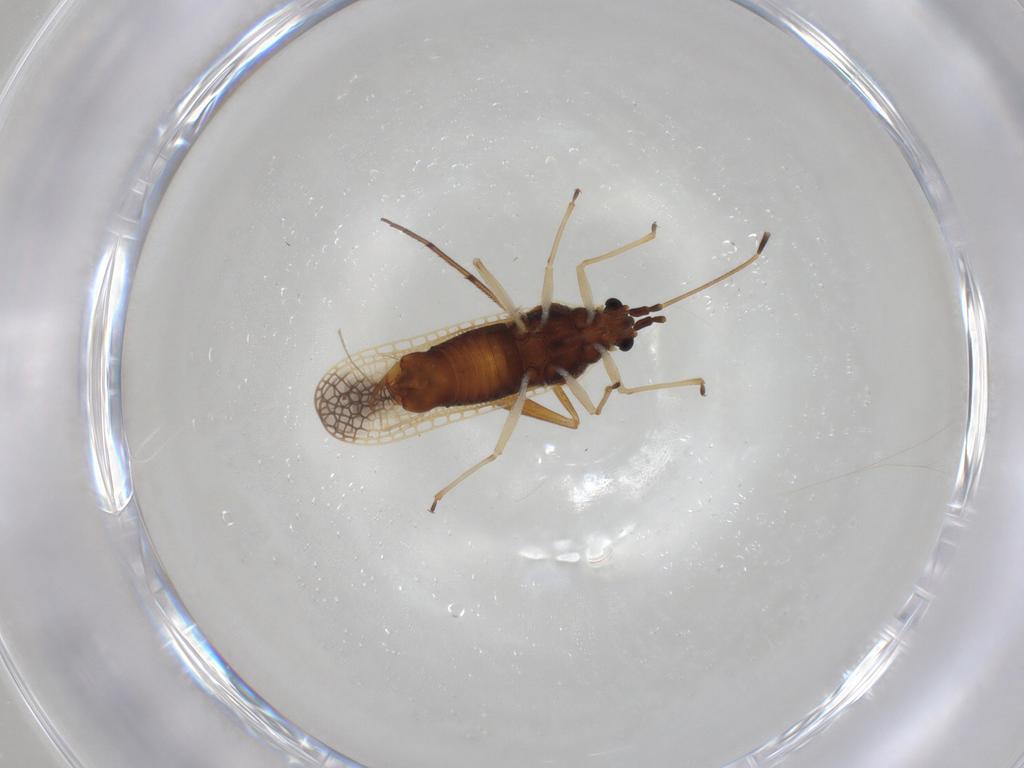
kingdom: Animalia
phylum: Arthropoda
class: Insecta
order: Hemiptera
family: Tingidae
